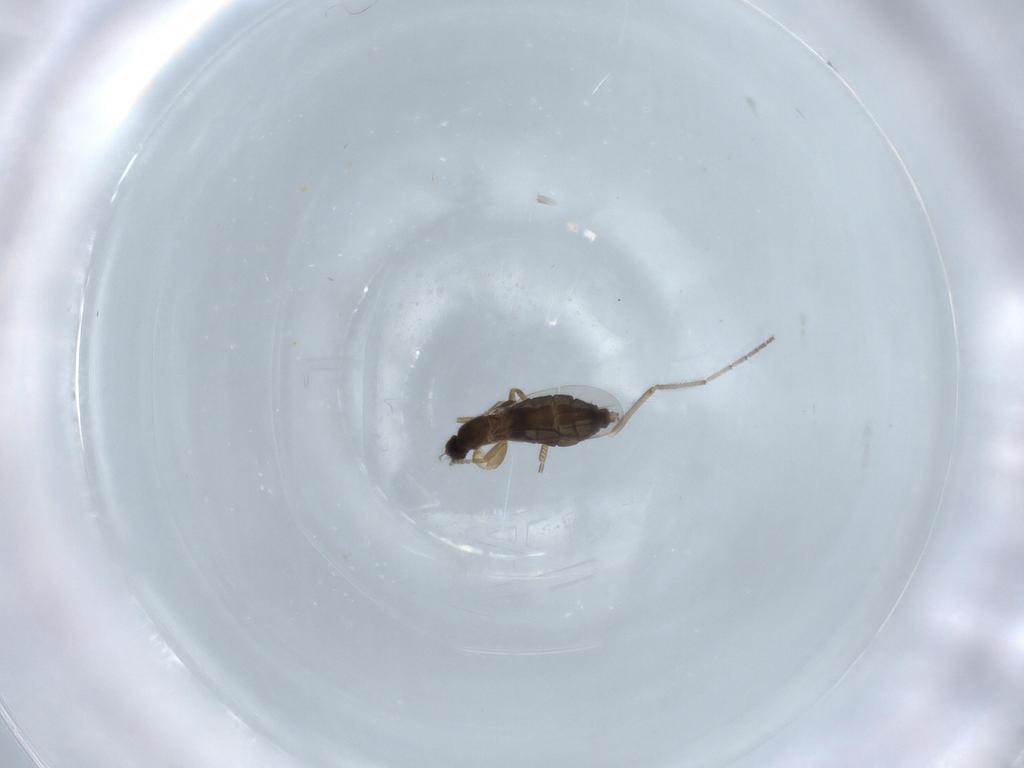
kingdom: Animalia
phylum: Arthropoda
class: Insecta
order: Diptera
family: Phoridae
